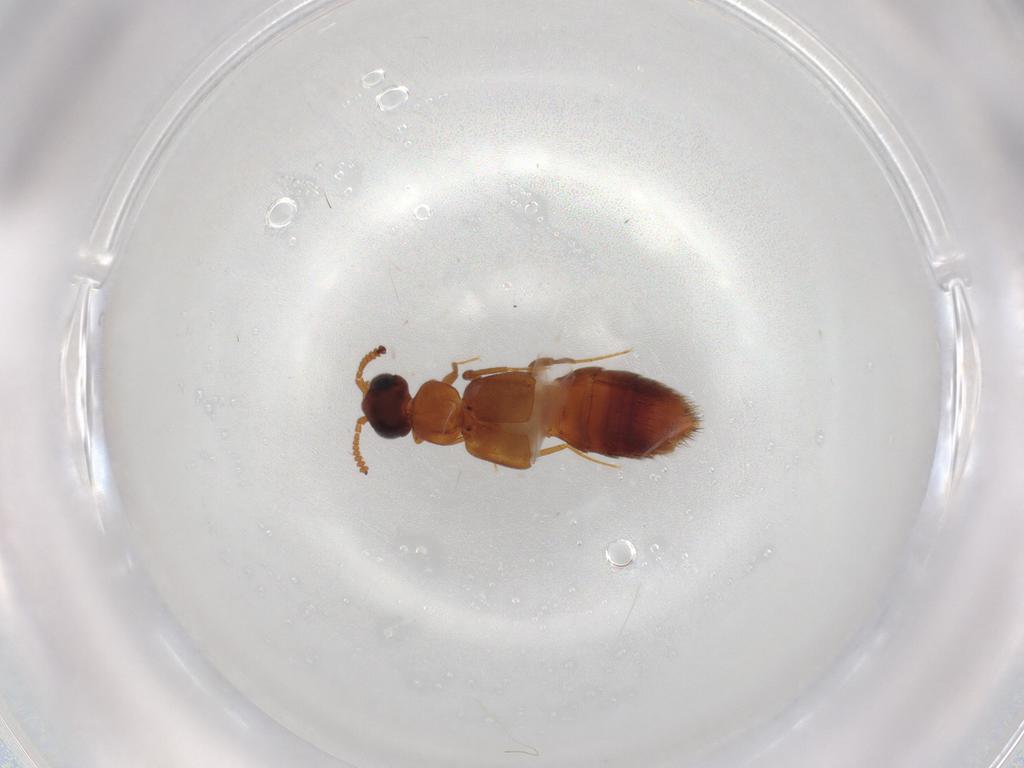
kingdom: Animalia
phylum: Arthropoda
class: Insecta
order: Coleoptera
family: Staphylinidae
